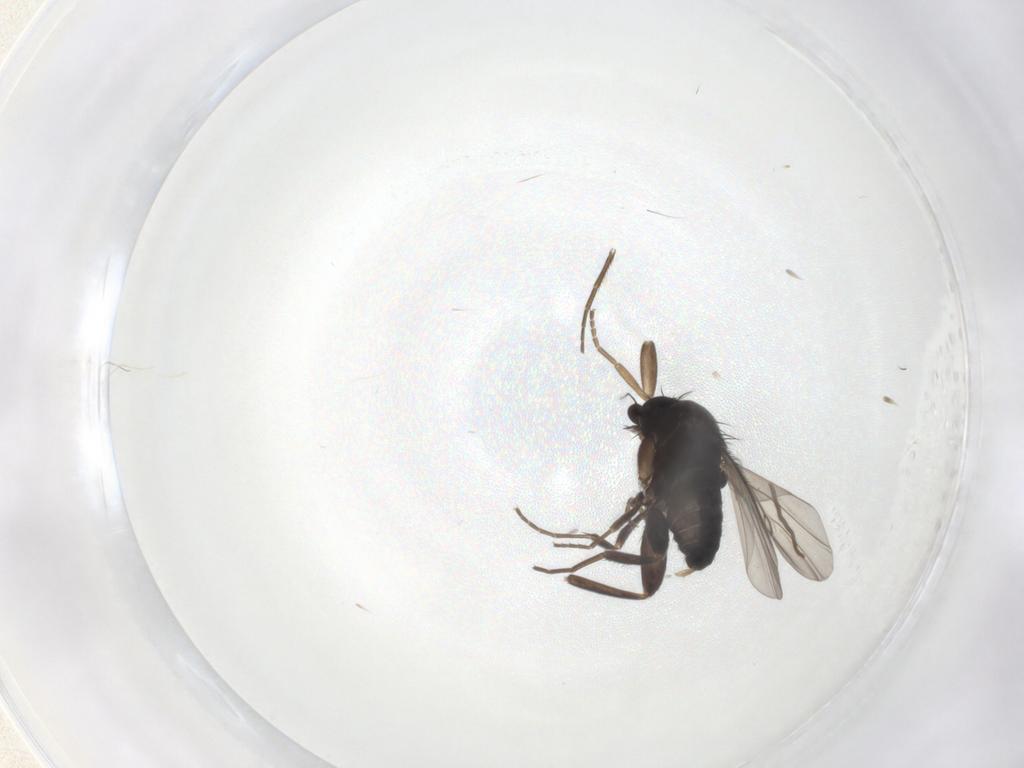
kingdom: Animalia
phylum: Arthropoda
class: Insecta
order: Diptera
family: Phoridae
